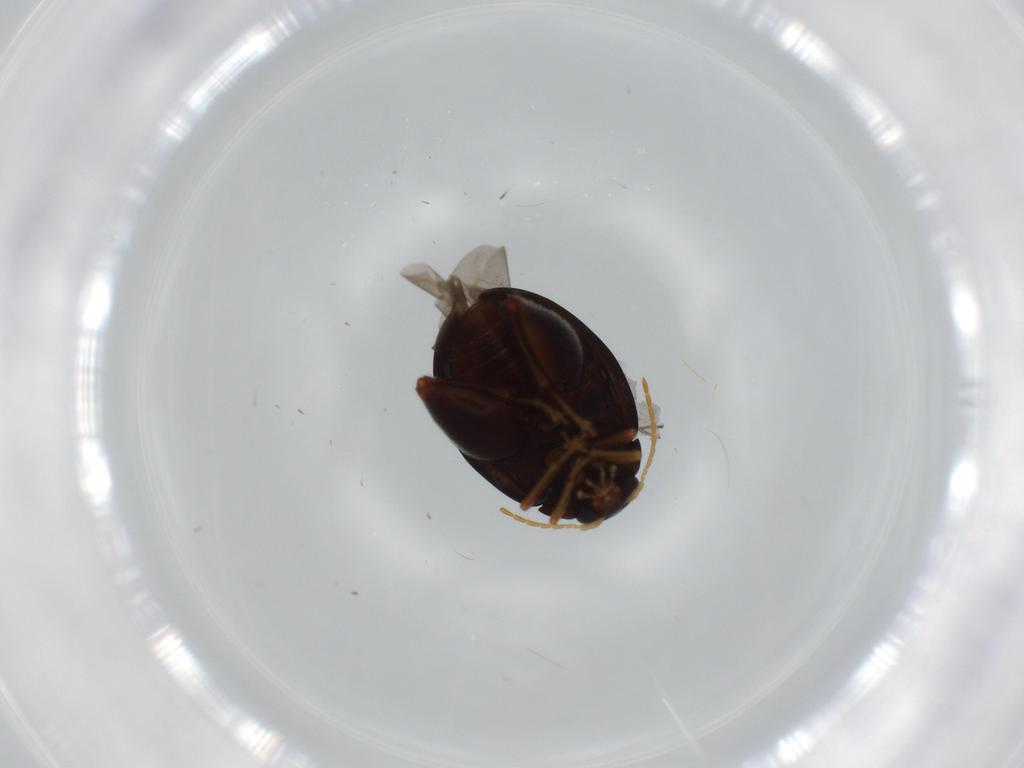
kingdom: Animalia
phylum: Arthropoda
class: Insecta
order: Coleoptera
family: Chrysomelidae
